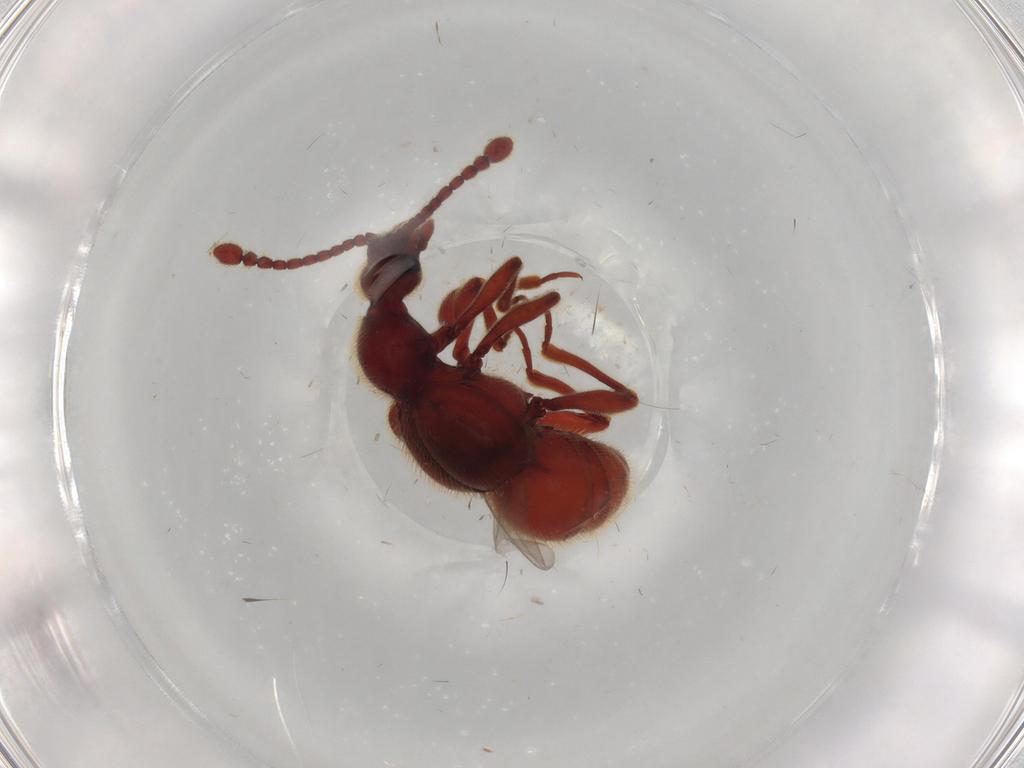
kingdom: Animalia
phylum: Arthropoda
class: Insecta
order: Coleoptera
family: Chrysomelidae
